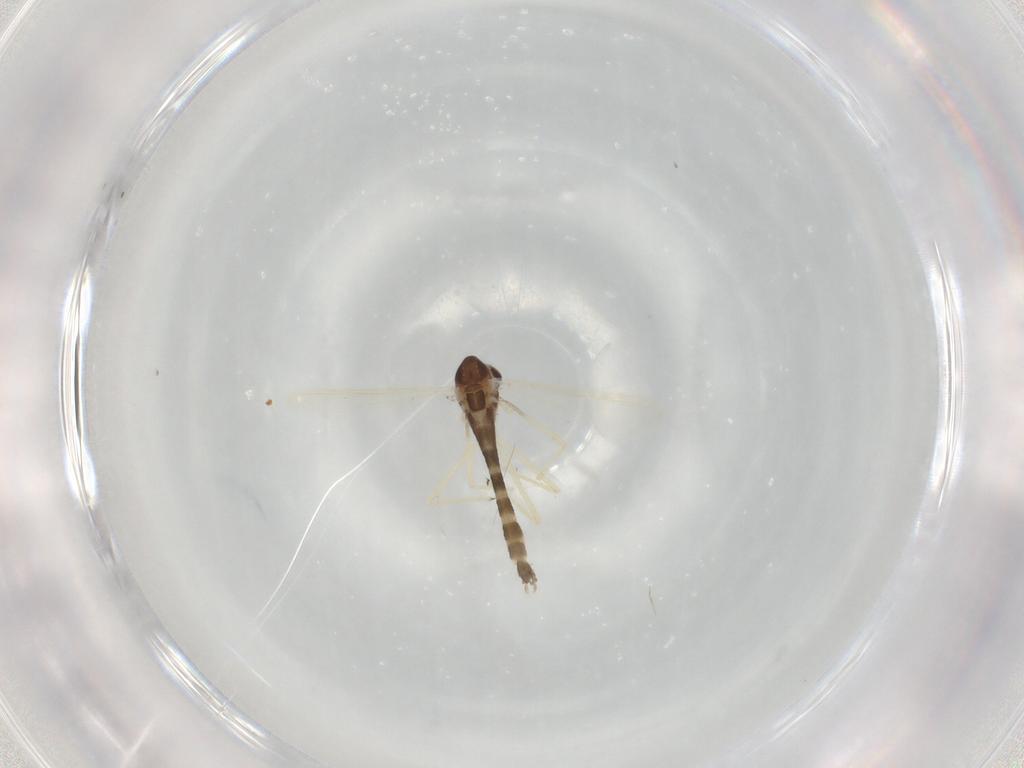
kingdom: Animalia
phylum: Arthropoda
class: Insecta
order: Diptera
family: Chironomidae
